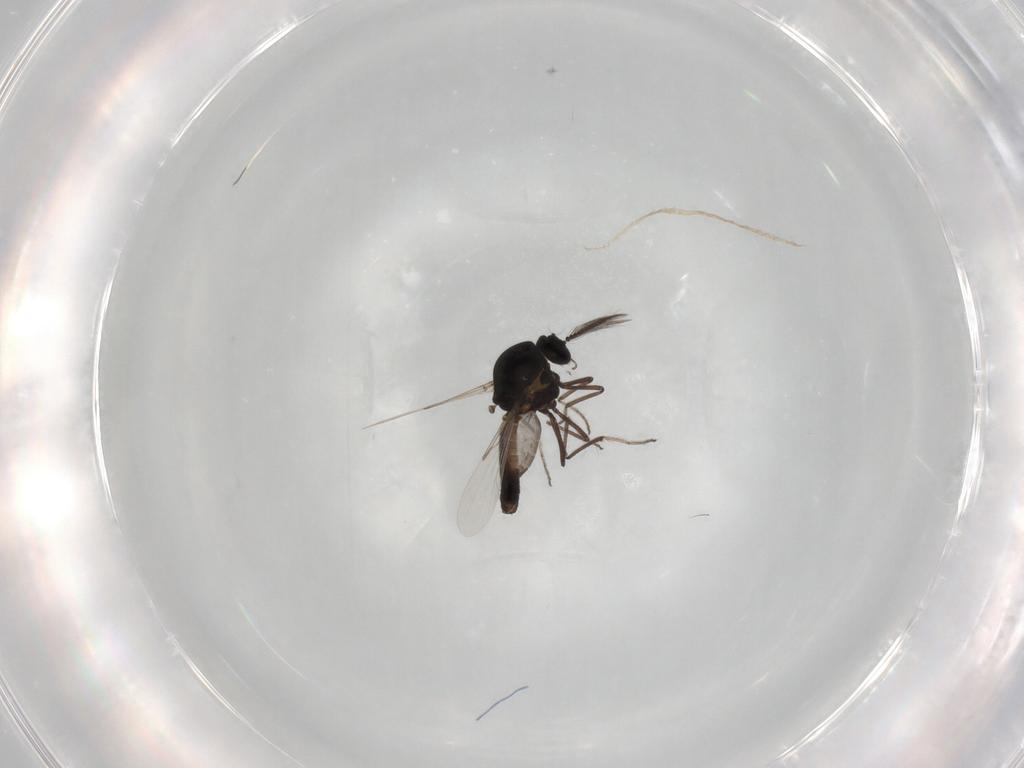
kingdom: Animalia
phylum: Arthropoda
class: Insecta
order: Diptera
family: Ceratopogonidae
